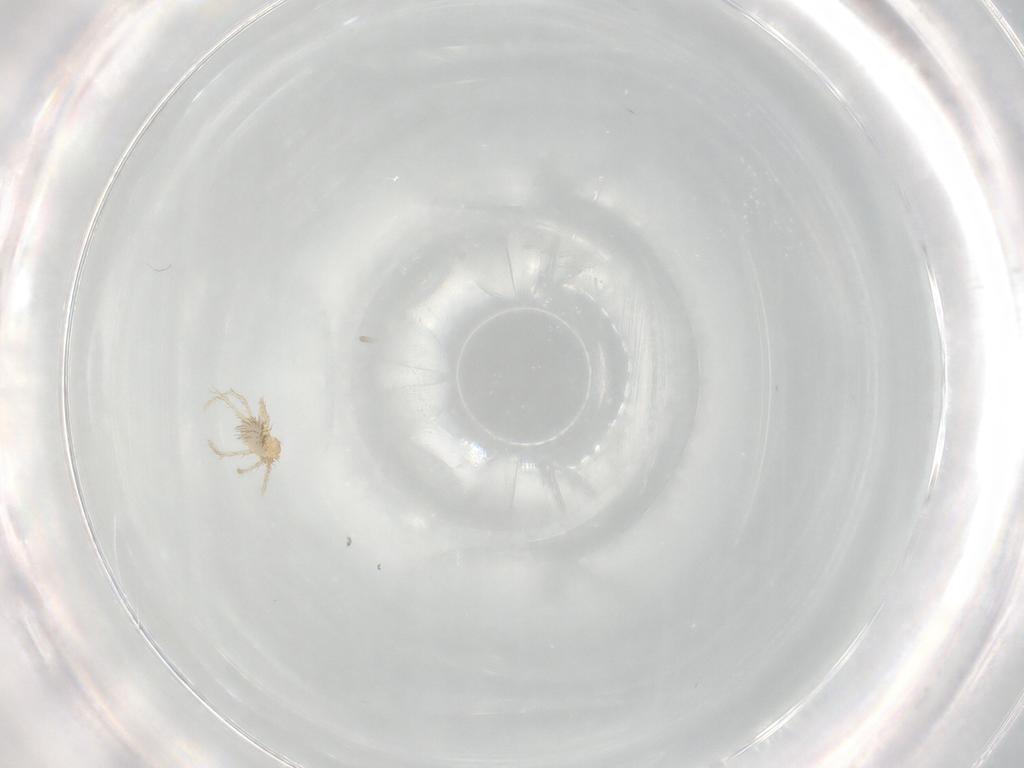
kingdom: Animalia
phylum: Arthropoda
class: Arachnida
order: Trombidiformes
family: Erythraeidae
